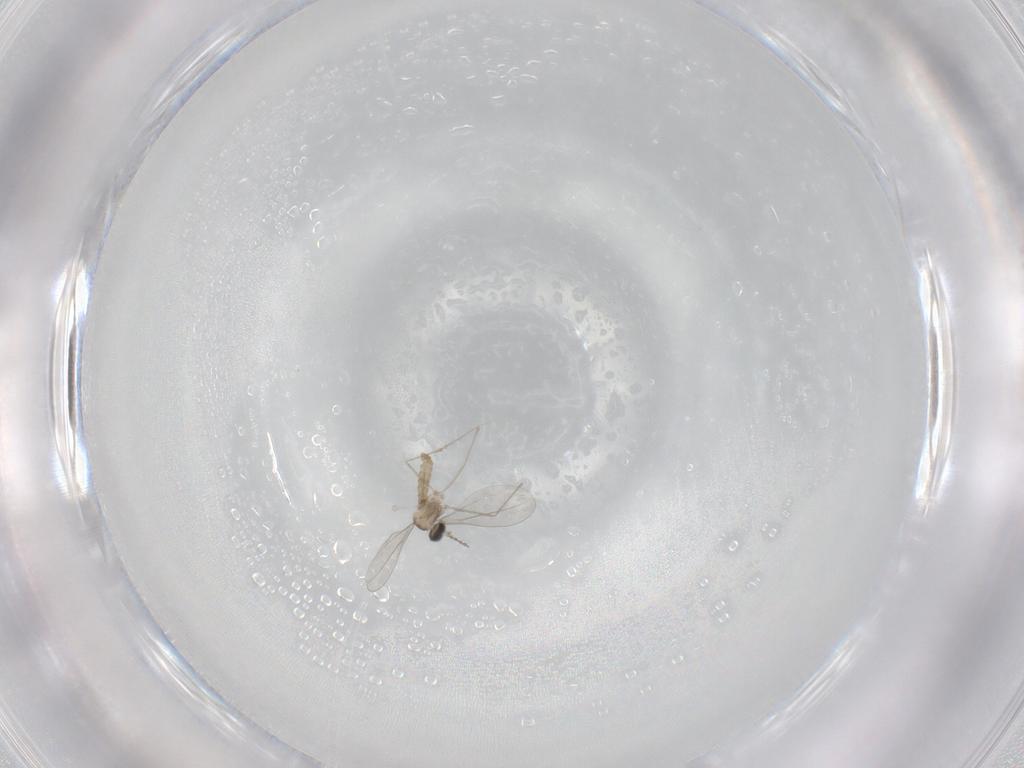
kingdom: Animalia
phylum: Arthropoda
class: Insecta
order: Diptera
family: Cecidomyiidae
